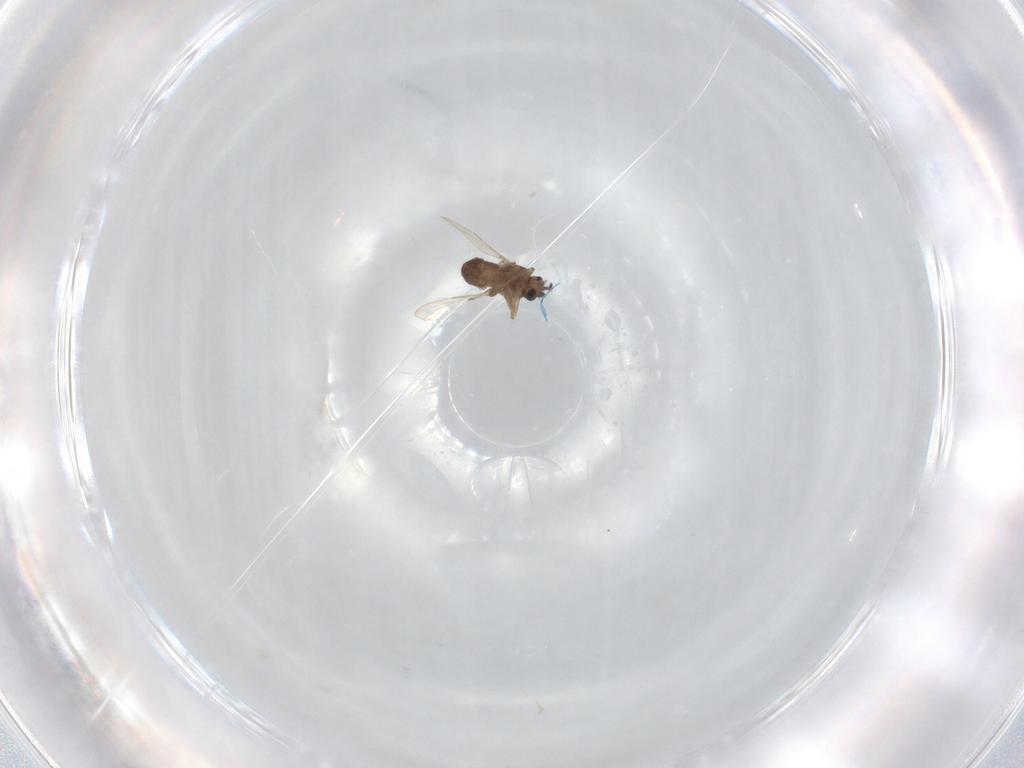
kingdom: Animalia
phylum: Arthropoda
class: Insecta
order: Diptera
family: Ceratopogonidae
